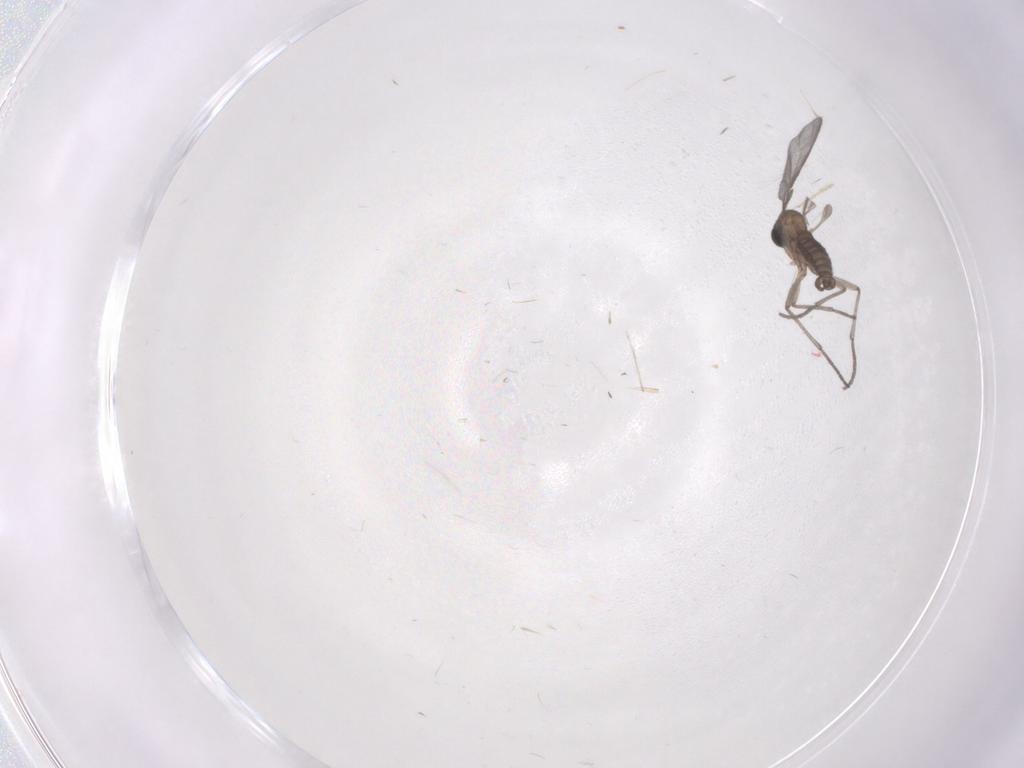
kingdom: Animalia
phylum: Arthropoda
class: Insecta
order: Diptera
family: Sciaridae
